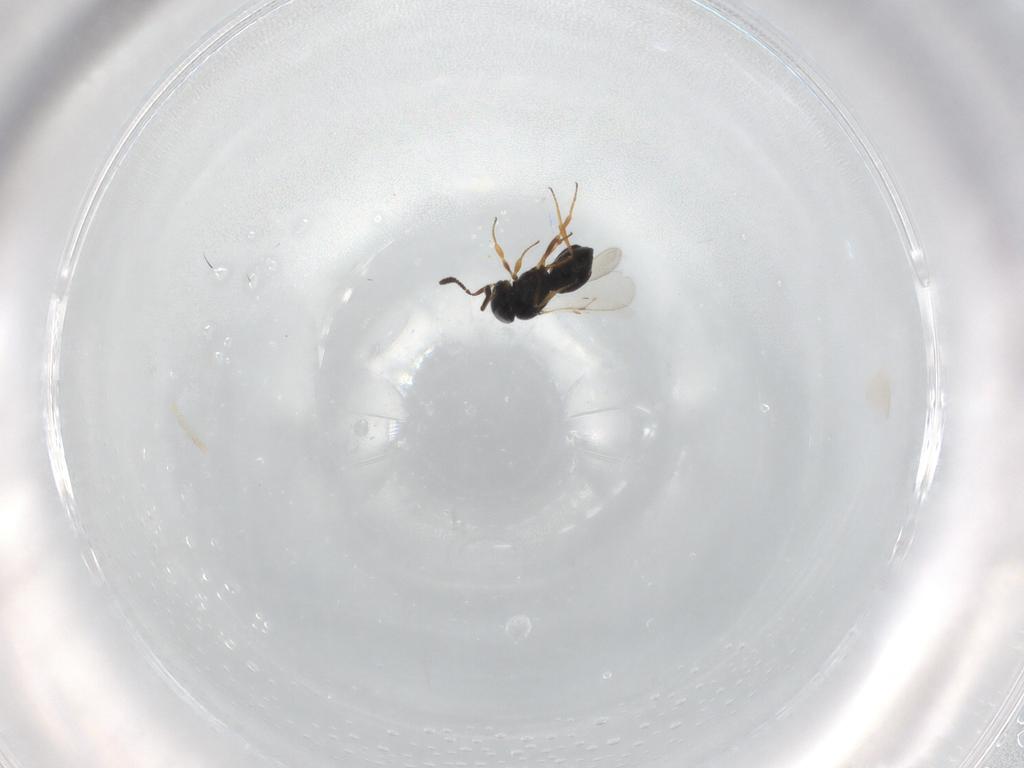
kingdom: Animalia
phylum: Arthropoda
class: Insecta
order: Hymenoptera
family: Scelionidae
